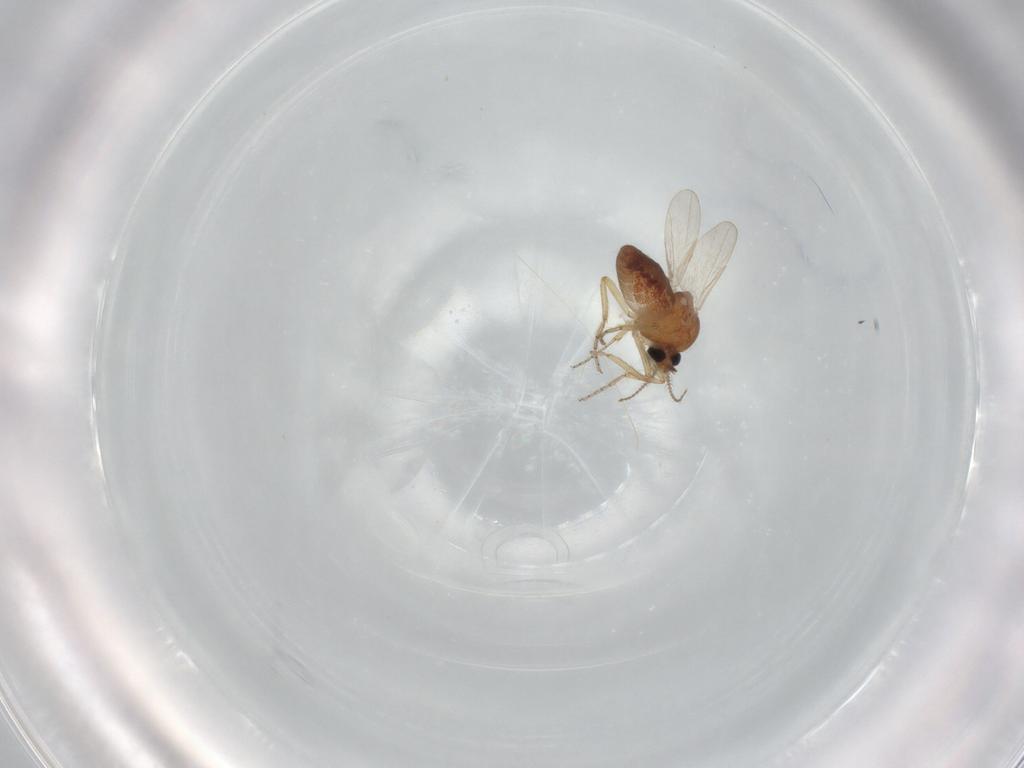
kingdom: Animalia
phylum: Arthropoda
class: Insecta
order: Diptera
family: Ceratopogonidae
